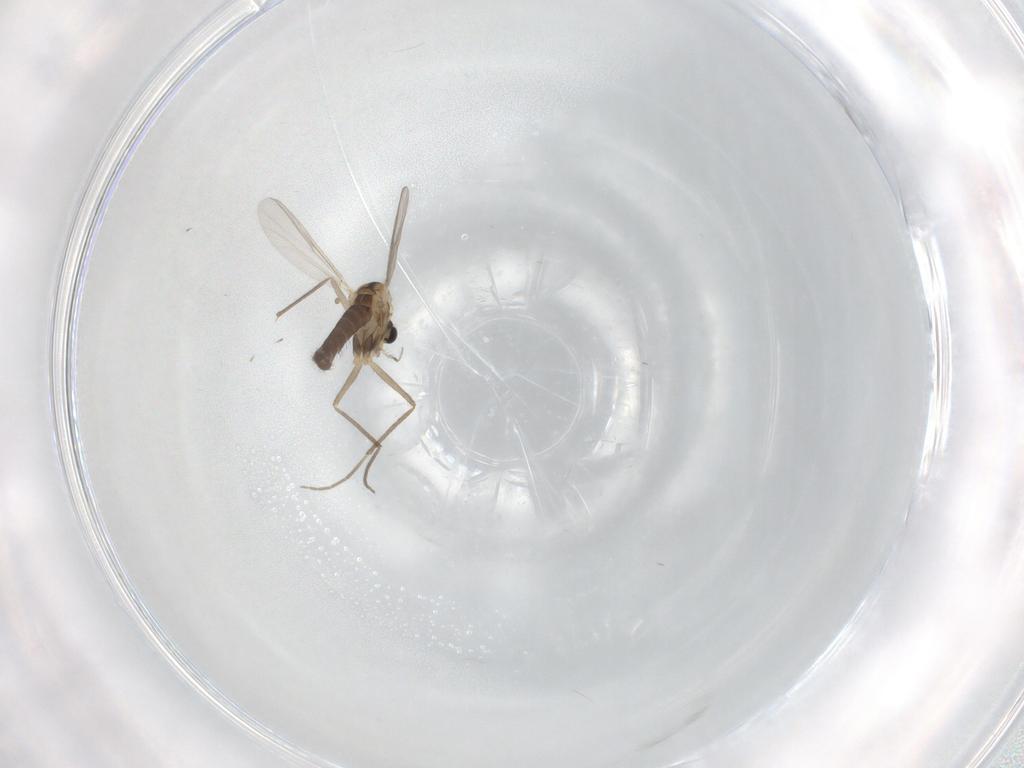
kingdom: Animalia
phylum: Arthropoda
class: Insecta
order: Diptera
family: Chironomidae
